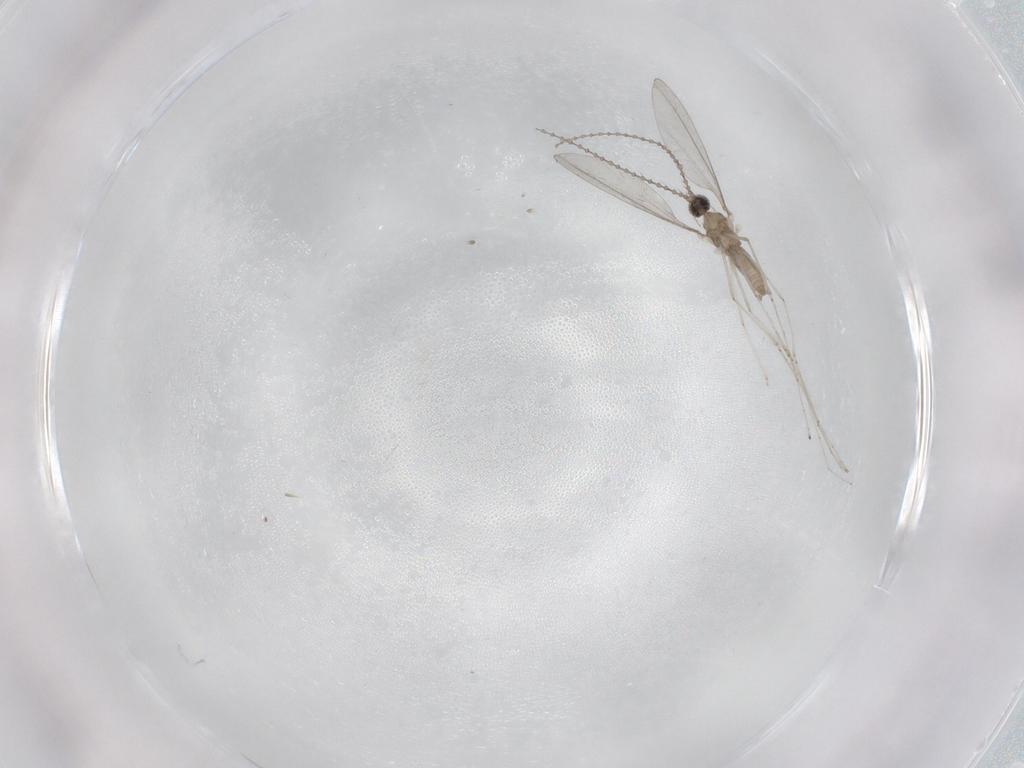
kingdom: Animalia
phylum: Arthropoda
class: Insecta
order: Diptera
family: Cecidomyiidae
